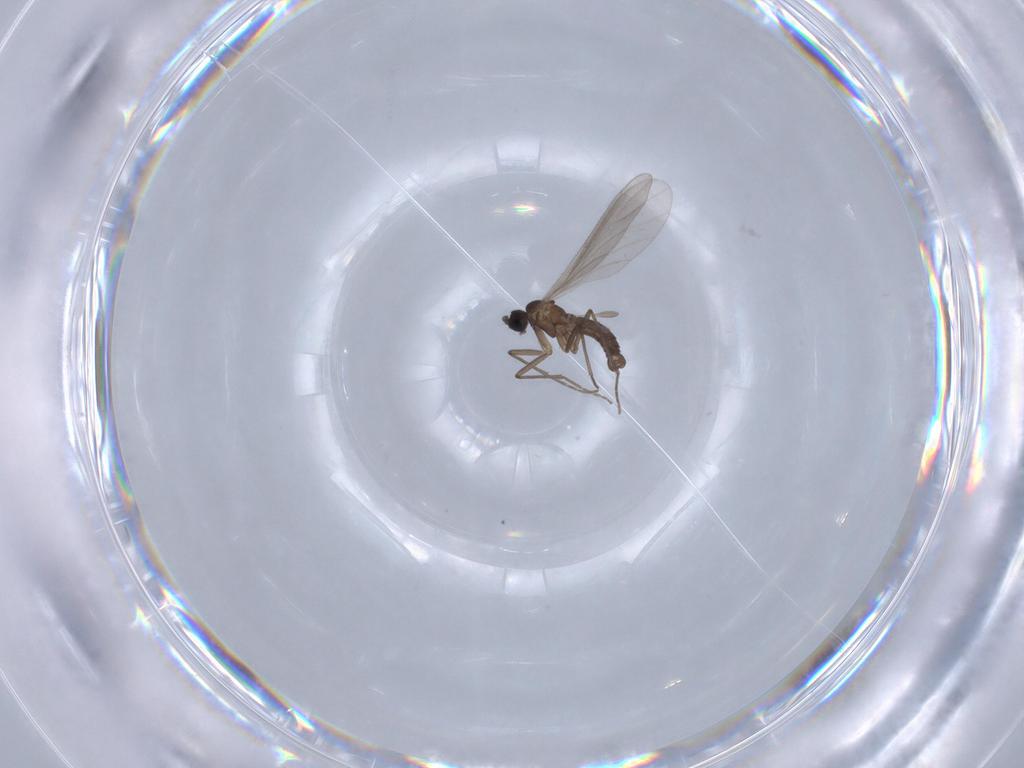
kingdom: Animalia
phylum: Arthropoda
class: Insecta
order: Diptera
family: Sciaridae
